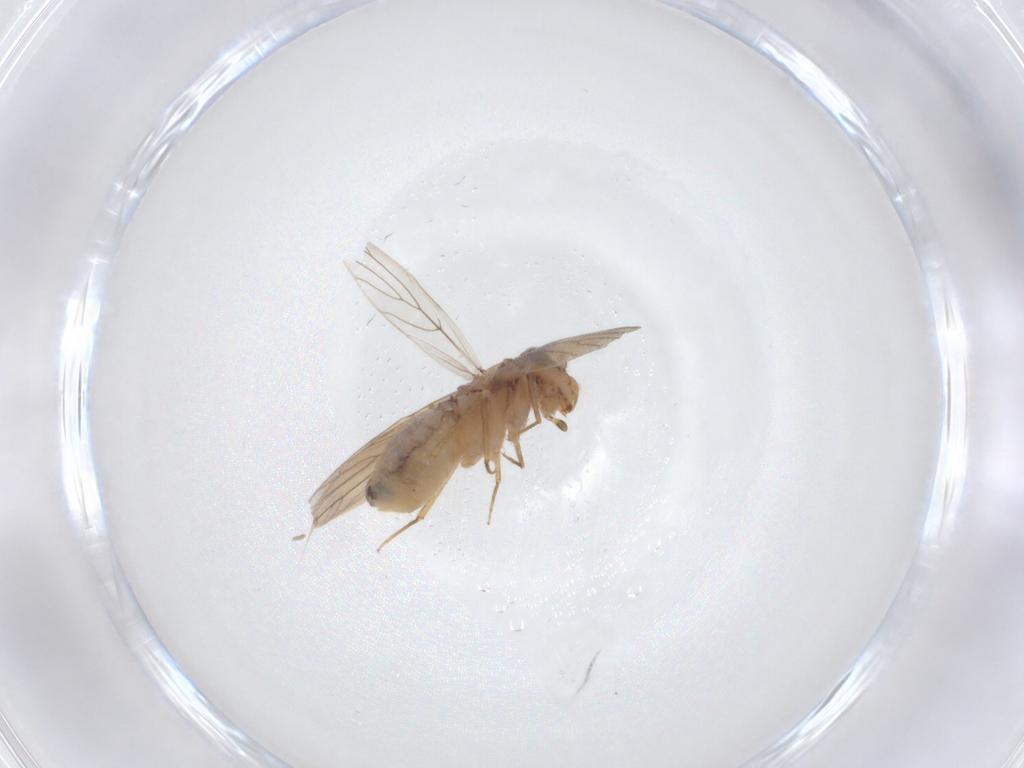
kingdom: Animalia
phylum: Arthropoda
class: Insecta
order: Psocodea
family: Lepidopsocidae
